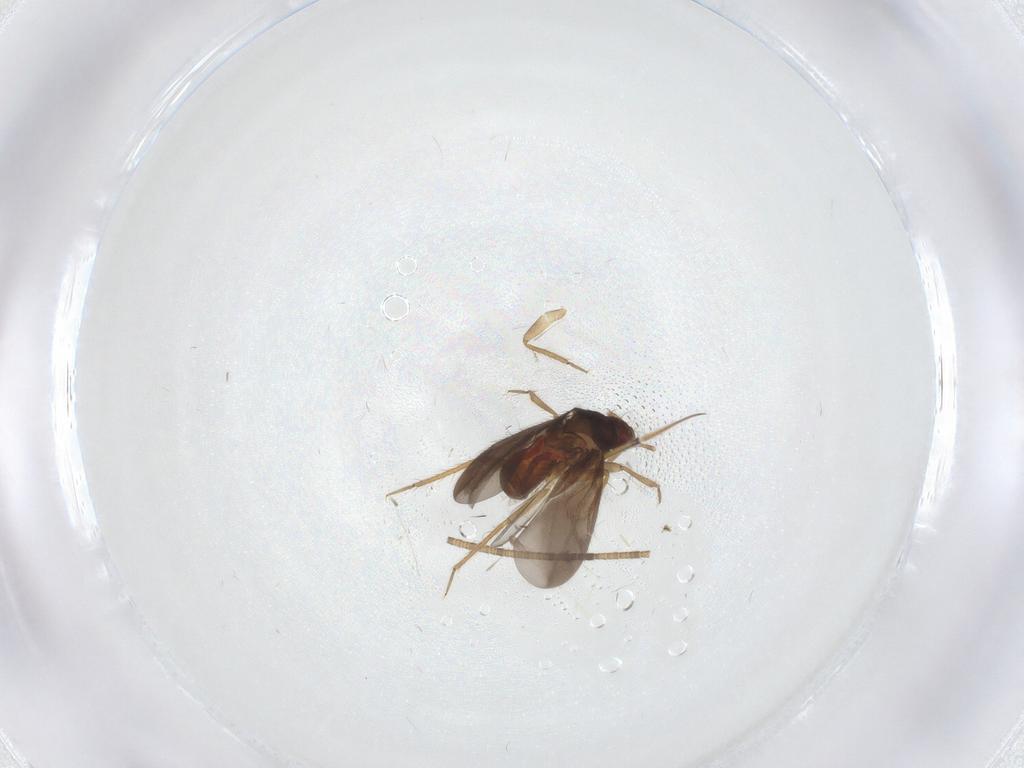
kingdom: Animalia
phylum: Arthropoda
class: Insecta
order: Hemiptera
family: Ceratocombidae
